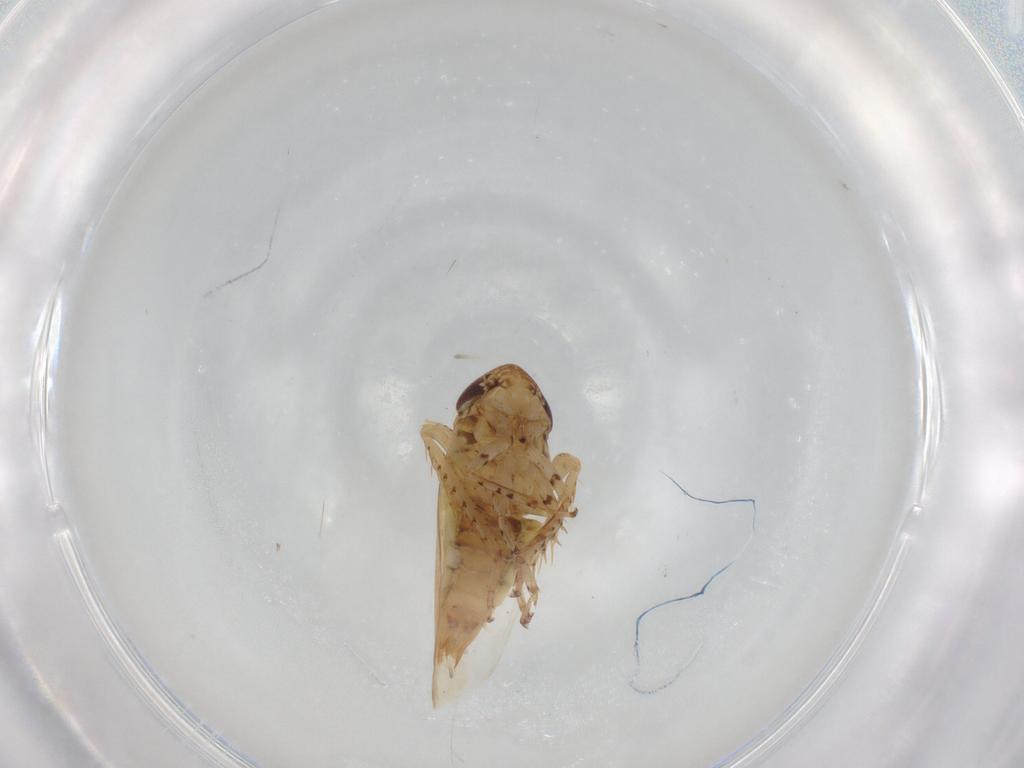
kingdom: Animalia
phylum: Arthropoda
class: Insecta
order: Hemiptera
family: Cicadellidae
